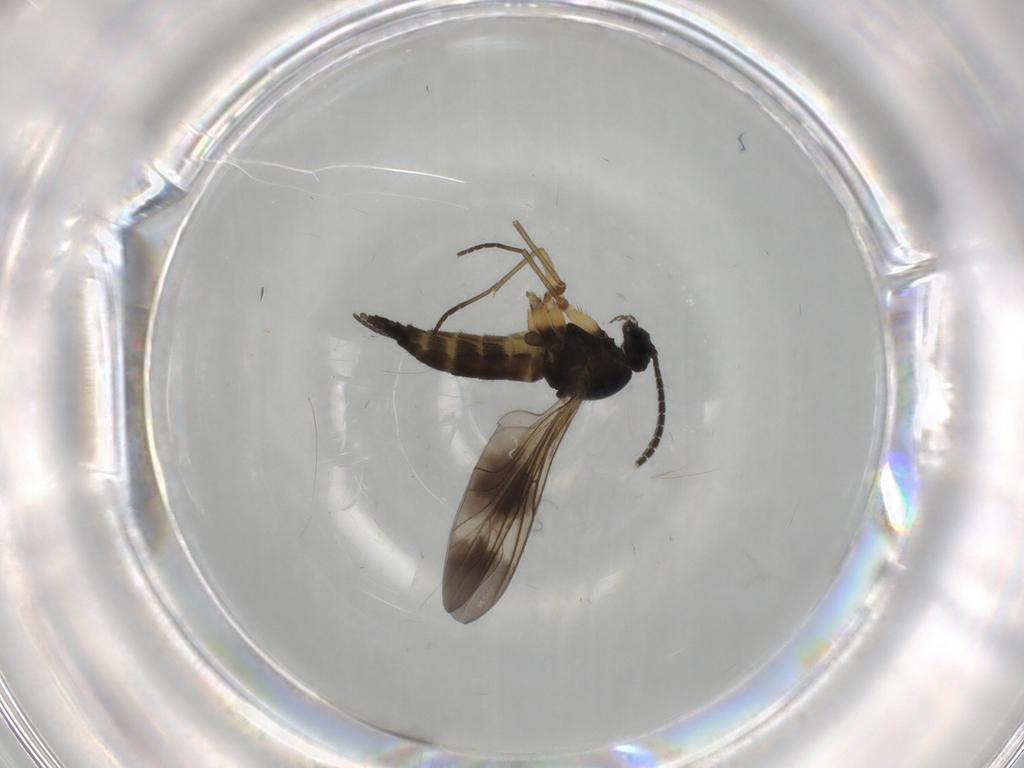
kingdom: Animalia
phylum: Arthropoda
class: Insecta
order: Diptera
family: Sciaridae
